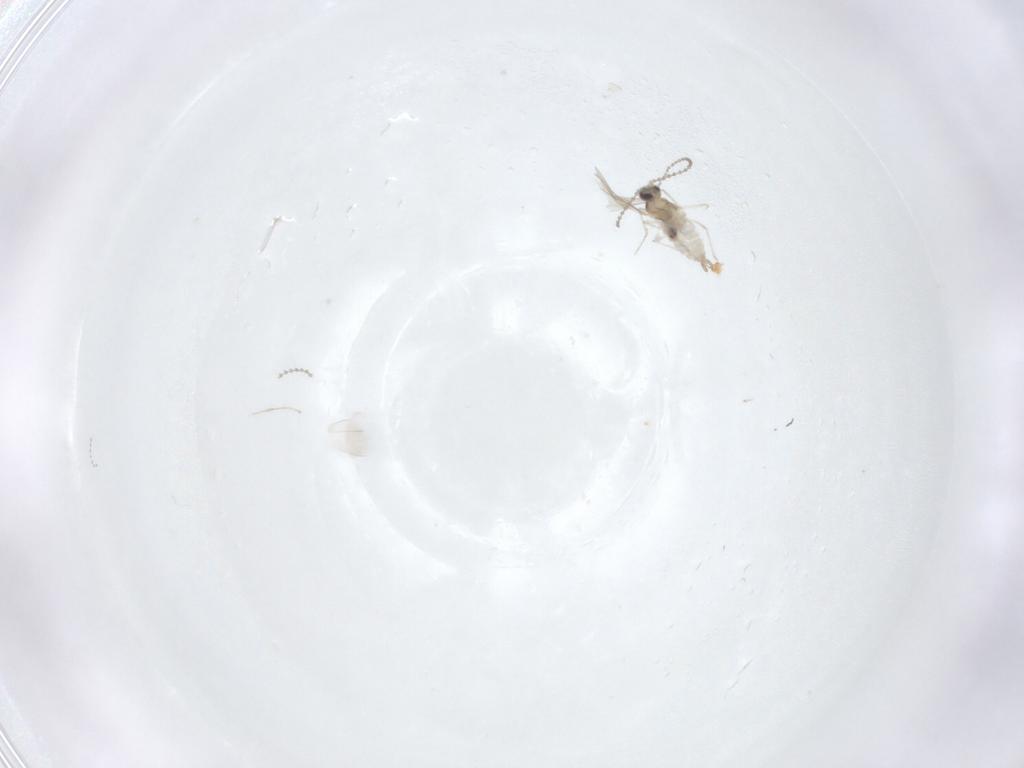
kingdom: Animalia
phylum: Arthropoda
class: Insecta
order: Diptera
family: Cecidomyiidae
